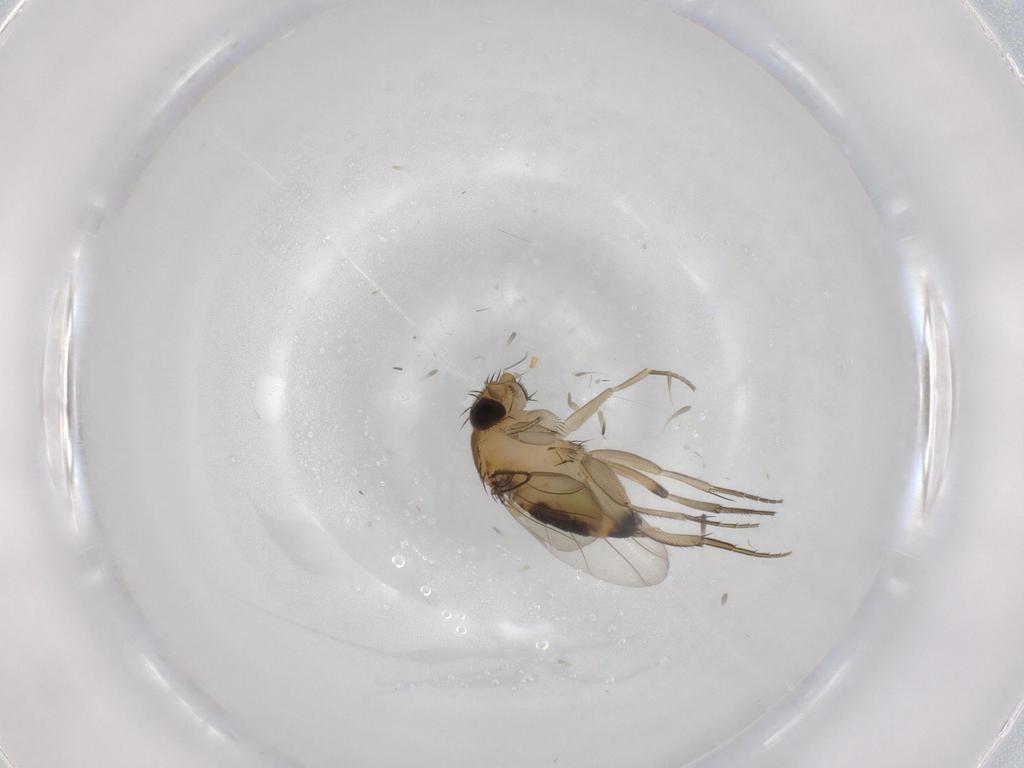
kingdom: Animalia
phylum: Arthropoda
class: Insecta
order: Diptera
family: Phoridae
